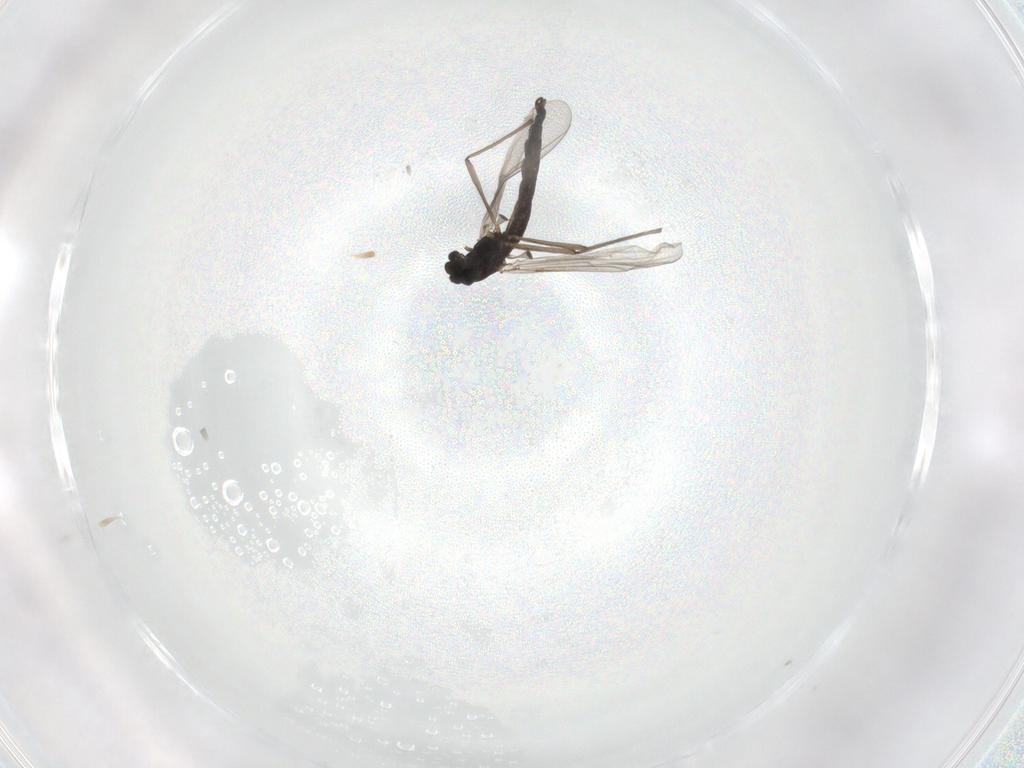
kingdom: Animalia
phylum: Arthropoda
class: Insecta
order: Diptera
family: Chironomidae
